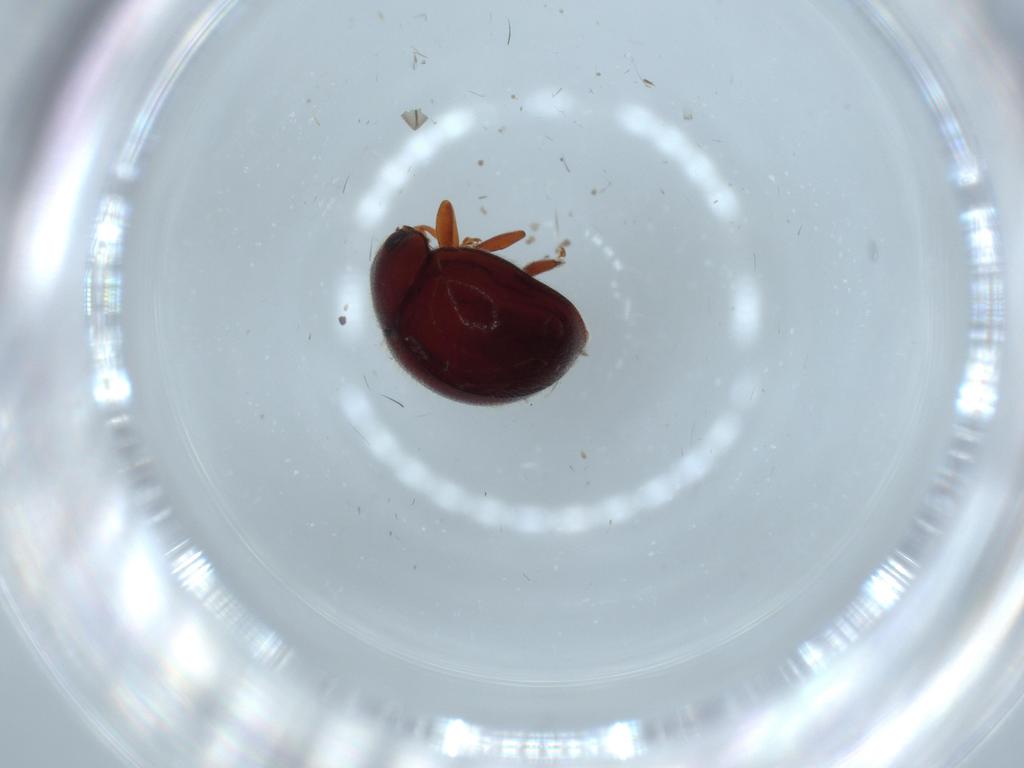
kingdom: Animalia
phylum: Arthropoda
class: Insecta
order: Coleoptera
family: Coccinellidae
